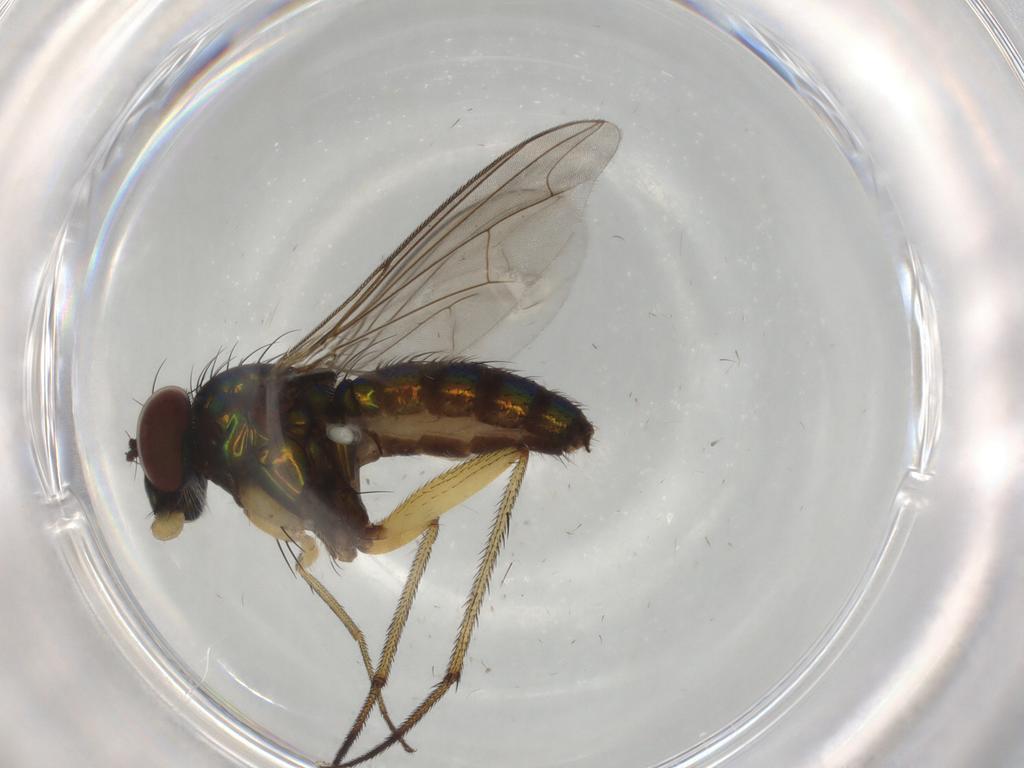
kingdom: Animalia
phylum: Arthropoda
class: Insecta
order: Diptera
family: Dolichopodidae
